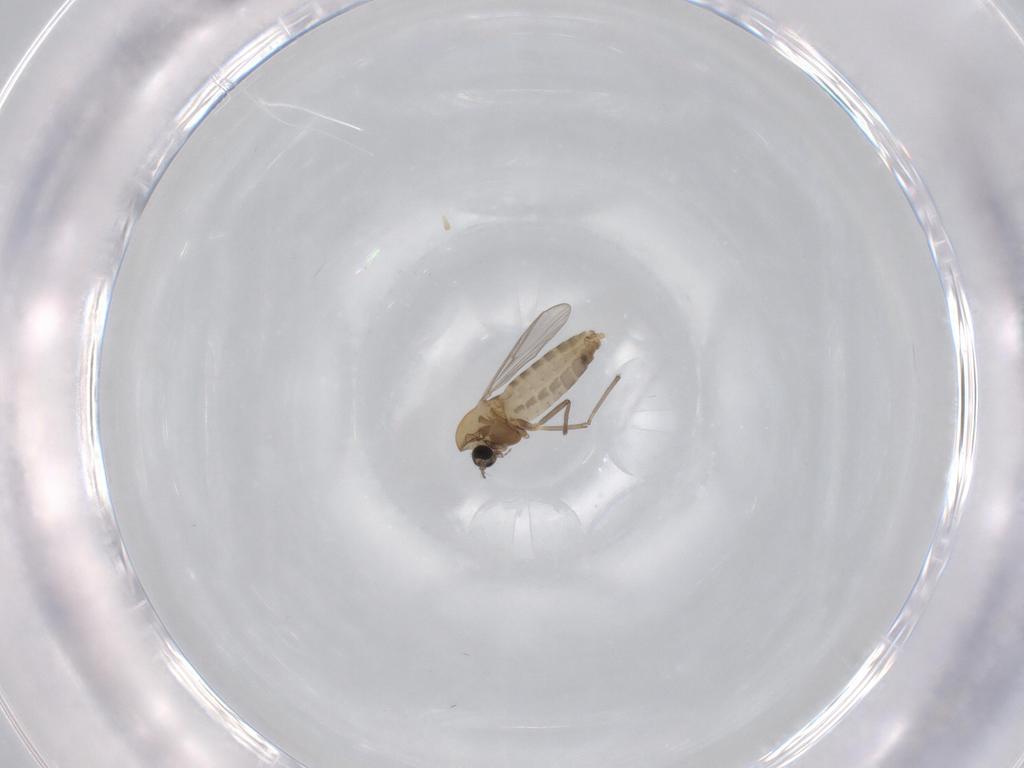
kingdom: Animalia
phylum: Arthropoda
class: Insecta
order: Diptera
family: Chironomidae
